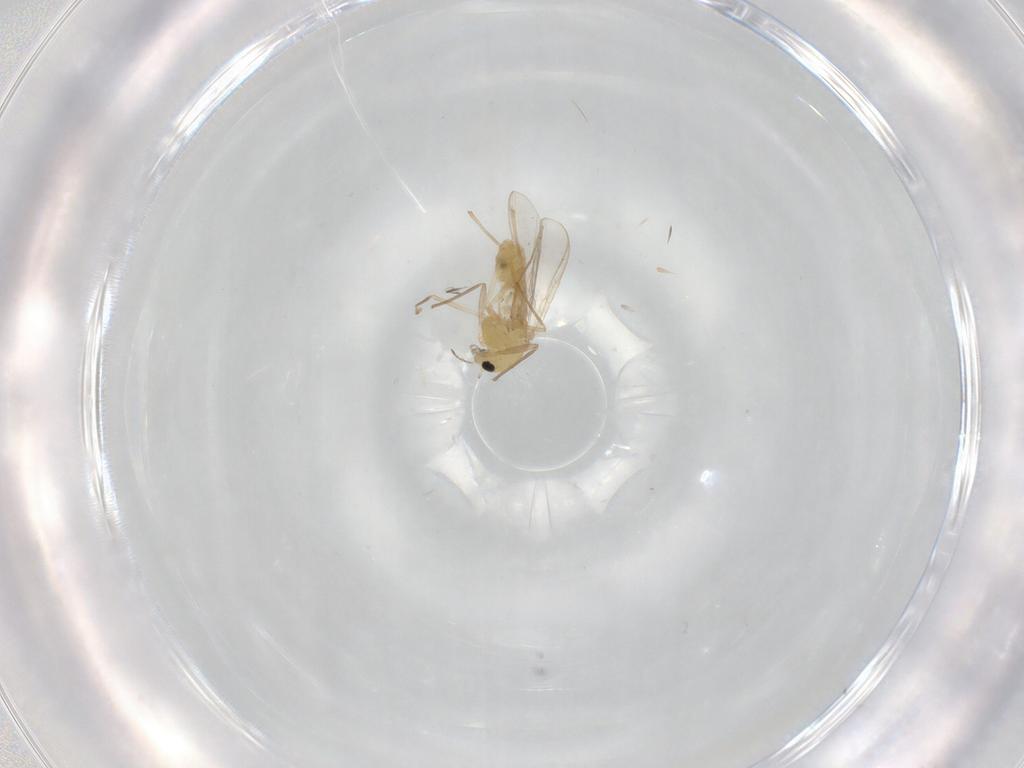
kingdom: Animalia
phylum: Arthropoda
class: Insecta
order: Diptera
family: Chironomidae
